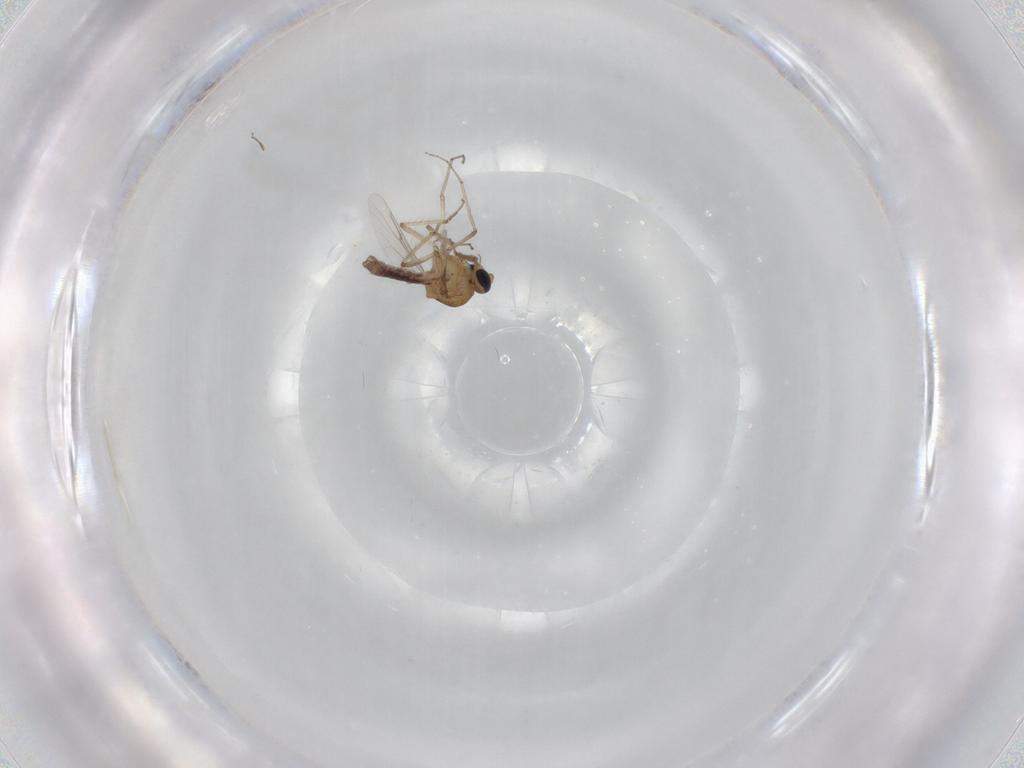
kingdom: Animalia
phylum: Arthropoda
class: Insecta
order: Diptera
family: Ceratopogonidae
